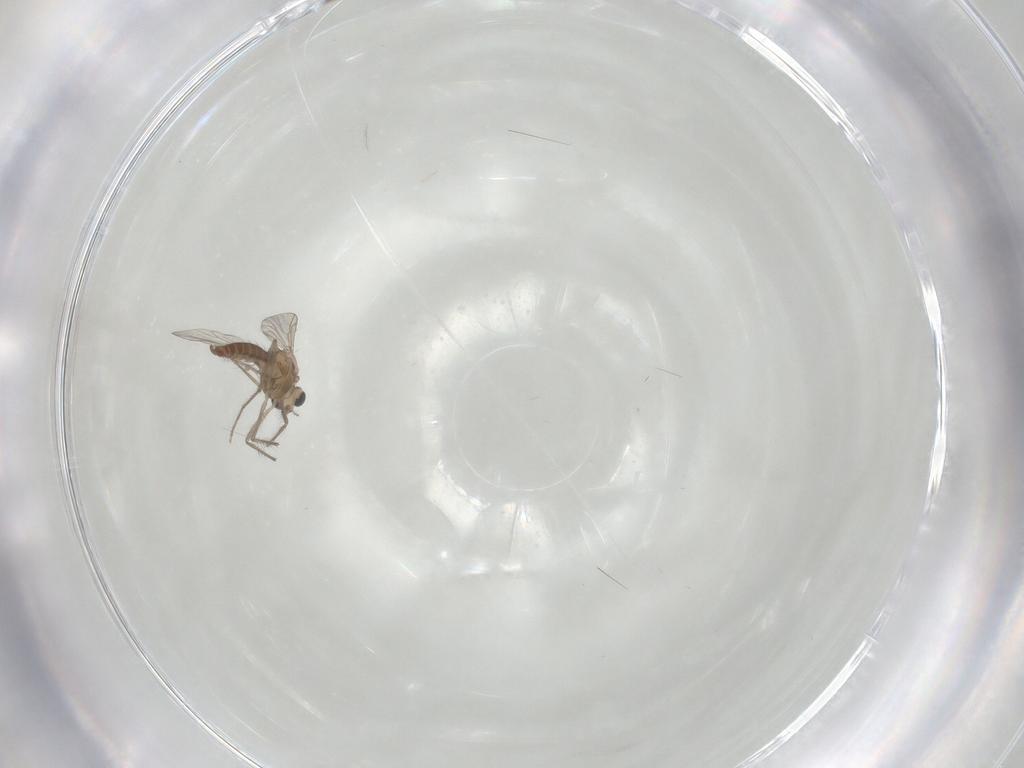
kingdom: Animalia
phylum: Arthropoda
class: Insecta
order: Diptera
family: Chironomidae
